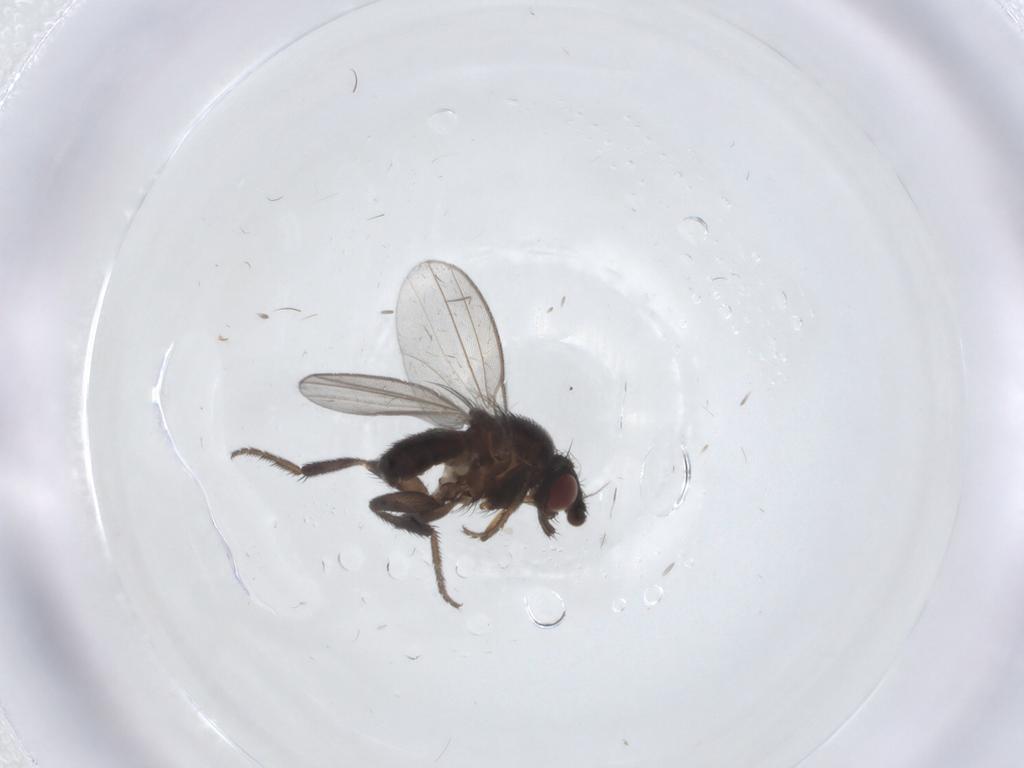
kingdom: Animalia
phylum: Arthropoda
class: Insecta
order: Diptera
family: Milichiidae
